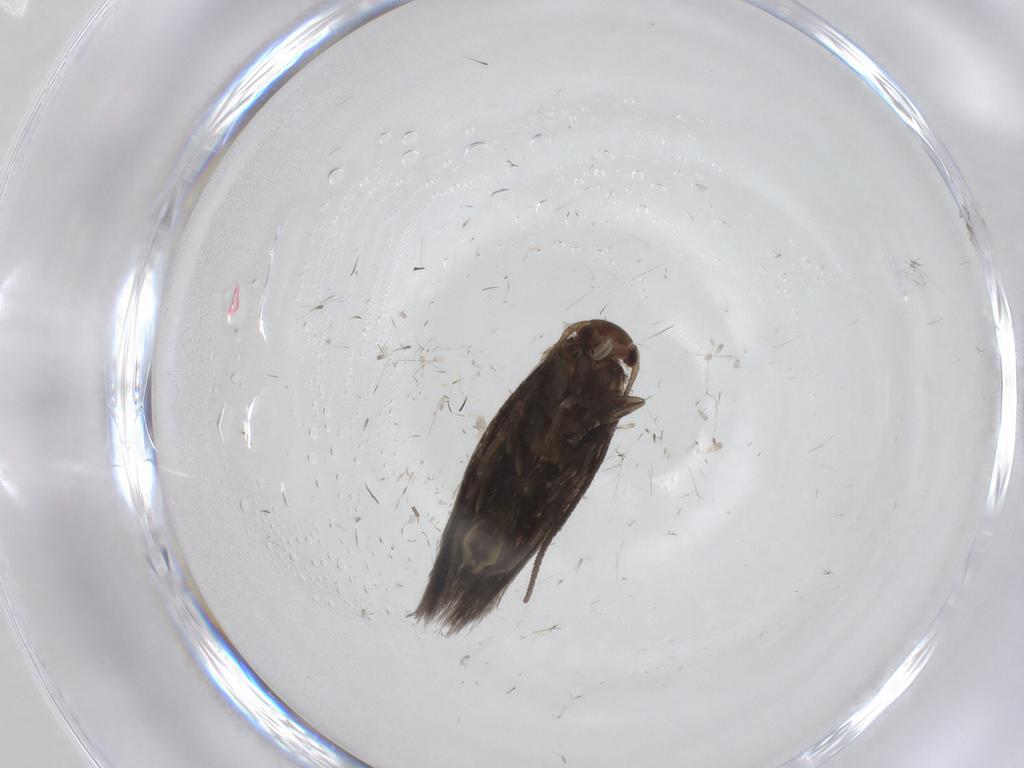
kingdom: Animalia
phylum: Arthropoda
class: Insecta
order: Lepidoptera
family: Elachistidae
